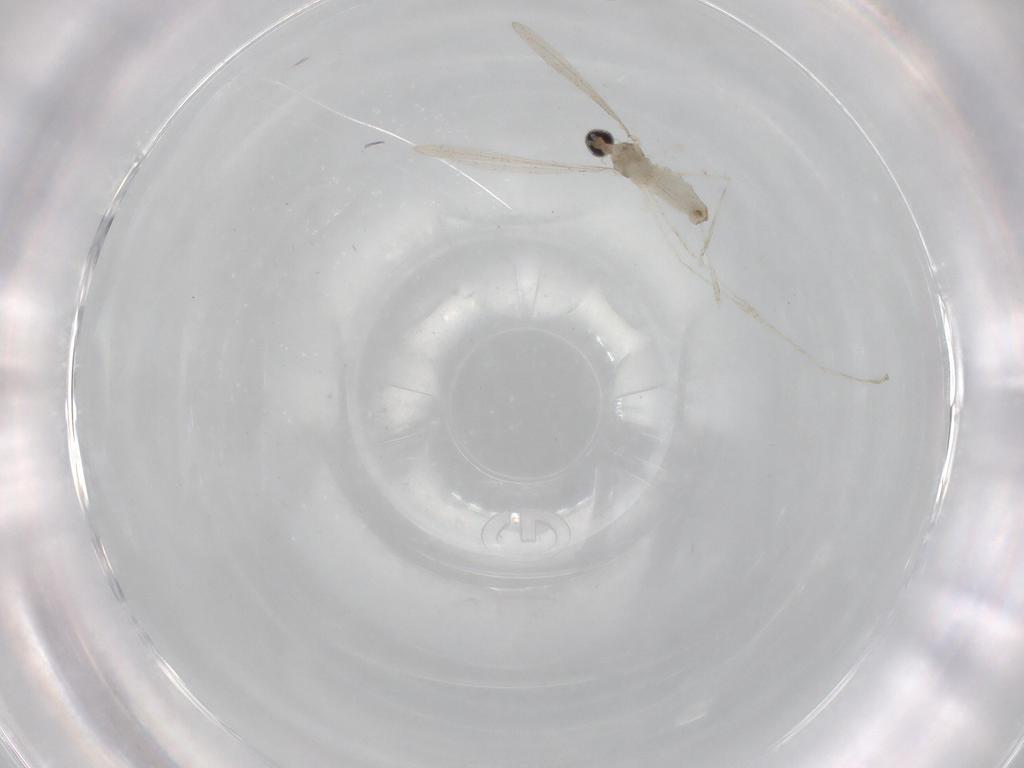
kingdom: Animalia
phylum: Arthropoda
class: Insecta
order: Diptera
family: Cecidomyiidae
